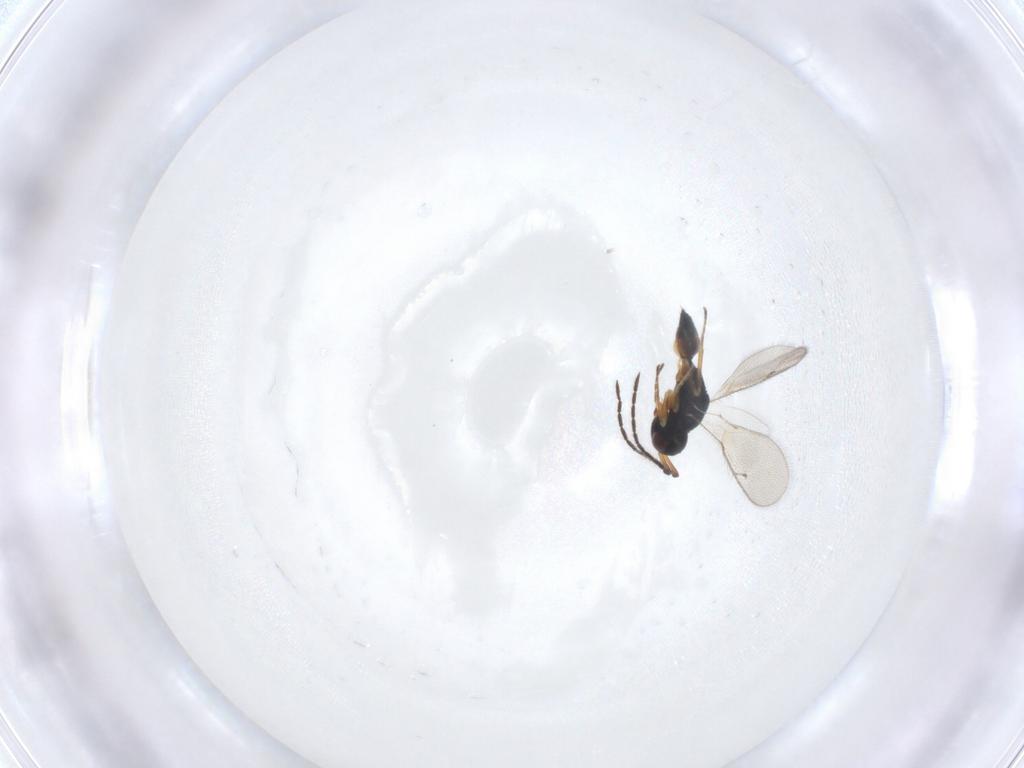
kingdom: Animalia
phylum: Arthropoda
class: Insecta
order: Hymenoptera
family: Pteromalidae
